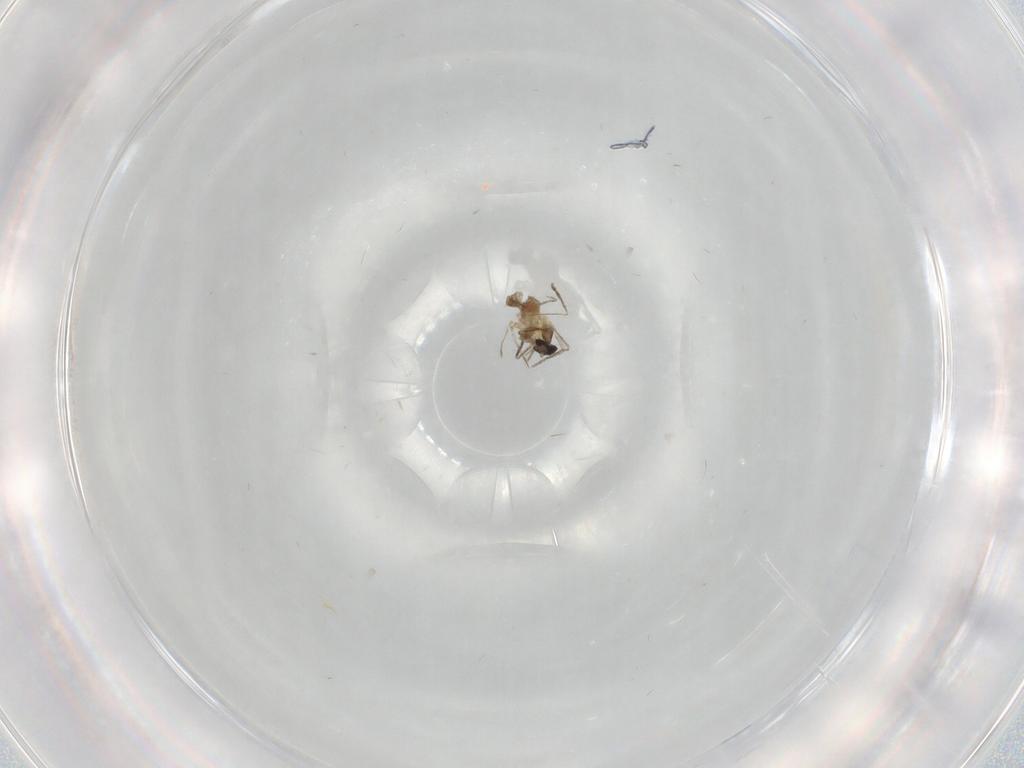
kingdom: Animalia
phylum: Arthropoda
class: Insecta
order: Diptera
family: Cecidomyiidae
